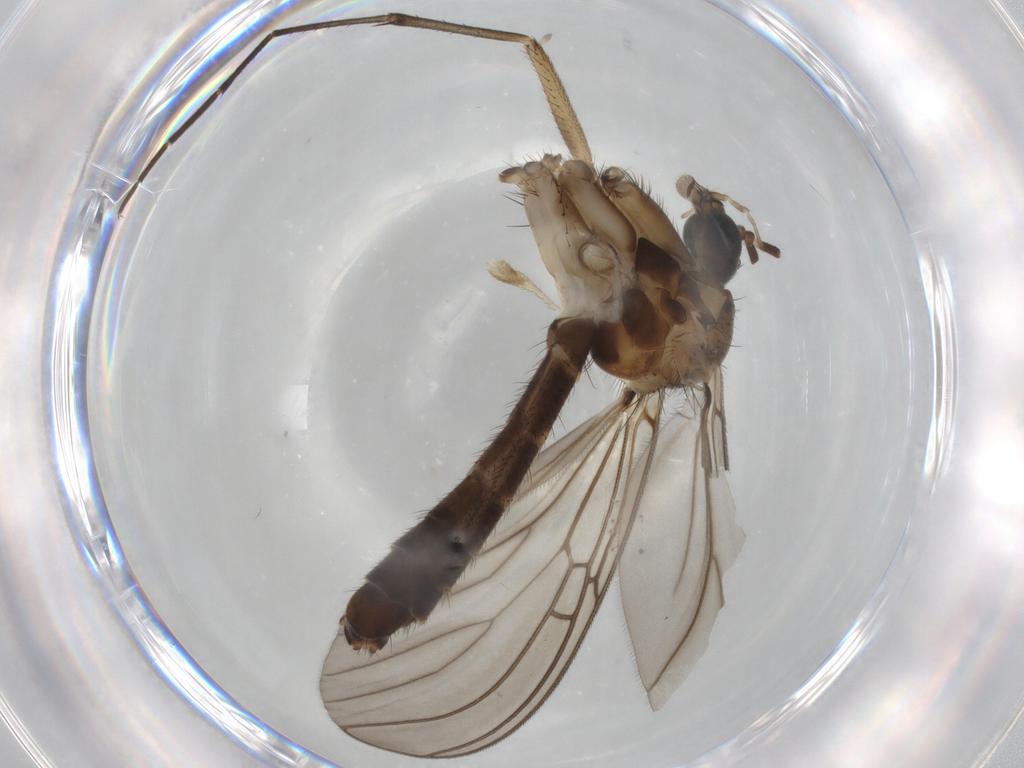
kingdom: Animalia
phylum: Arthropoda
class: Insecta
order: Diptera
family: Mycetophilidae
